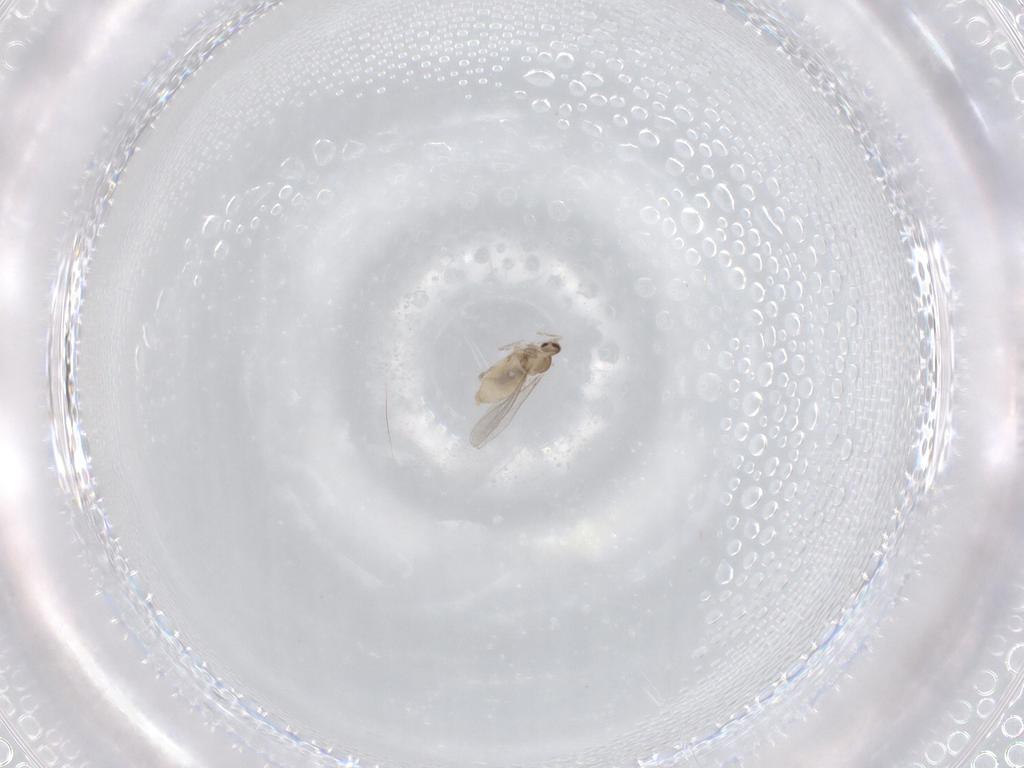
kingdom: Animalia
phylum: Arthropoda
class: Insecta
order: Diptera
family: Cecidomyiidae
